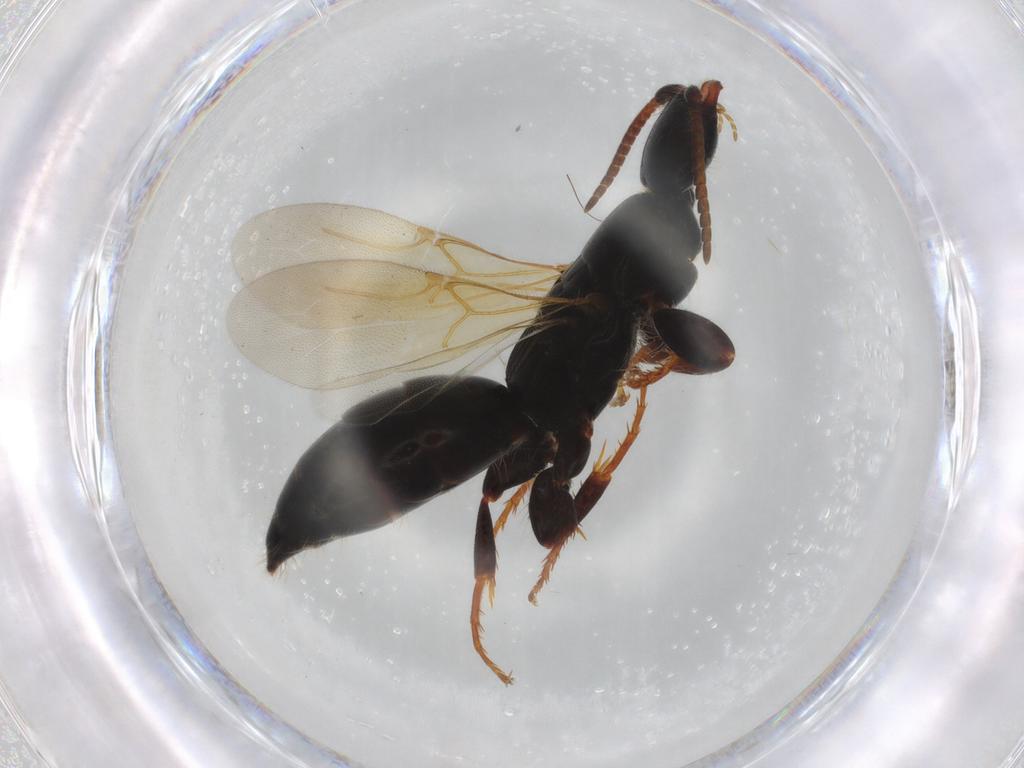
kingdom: Animalia
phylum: Arthropoda
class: Insecta
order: Hymenoptera
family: Bethylidae
